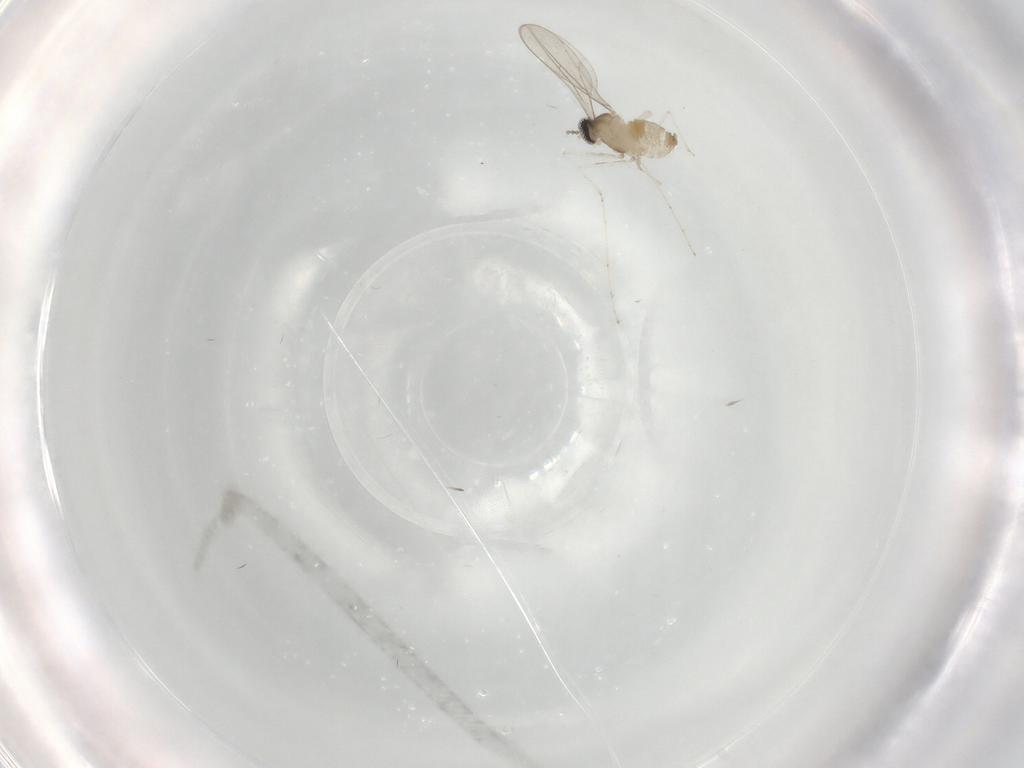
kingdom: Animalia
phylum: Arthropoda
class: Insecta
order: Diptera
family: Cecidomyiidae
